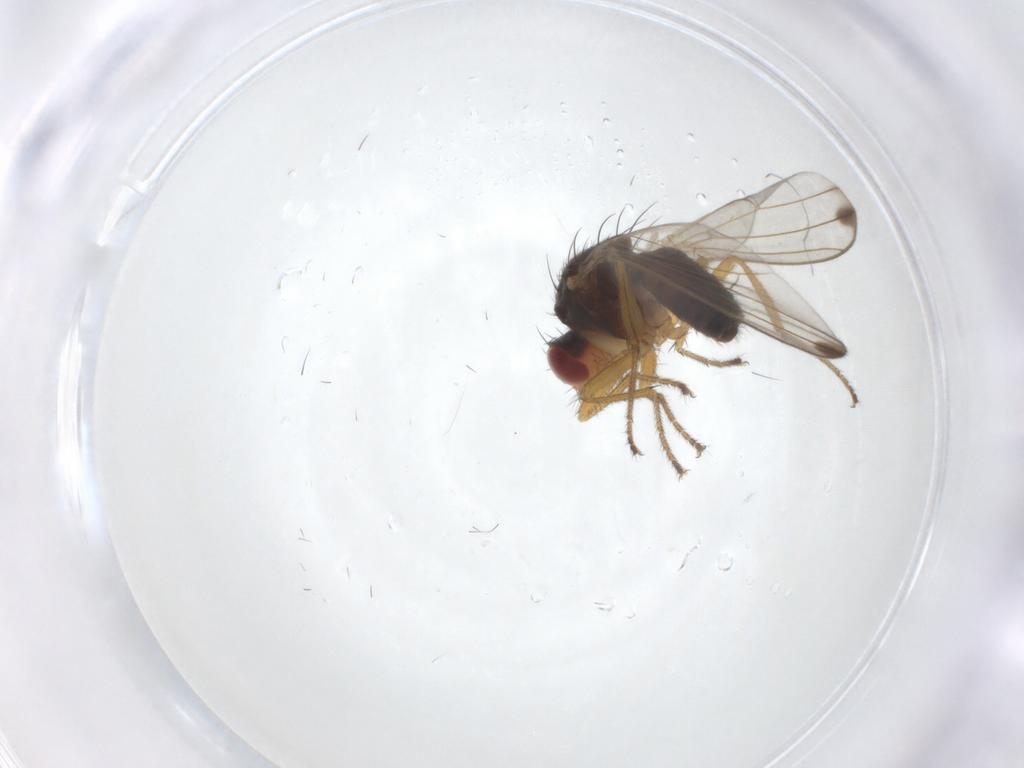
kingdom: Animalia
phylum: Arthropoda
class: Insecta
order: Diptera
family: Drosophilidae
